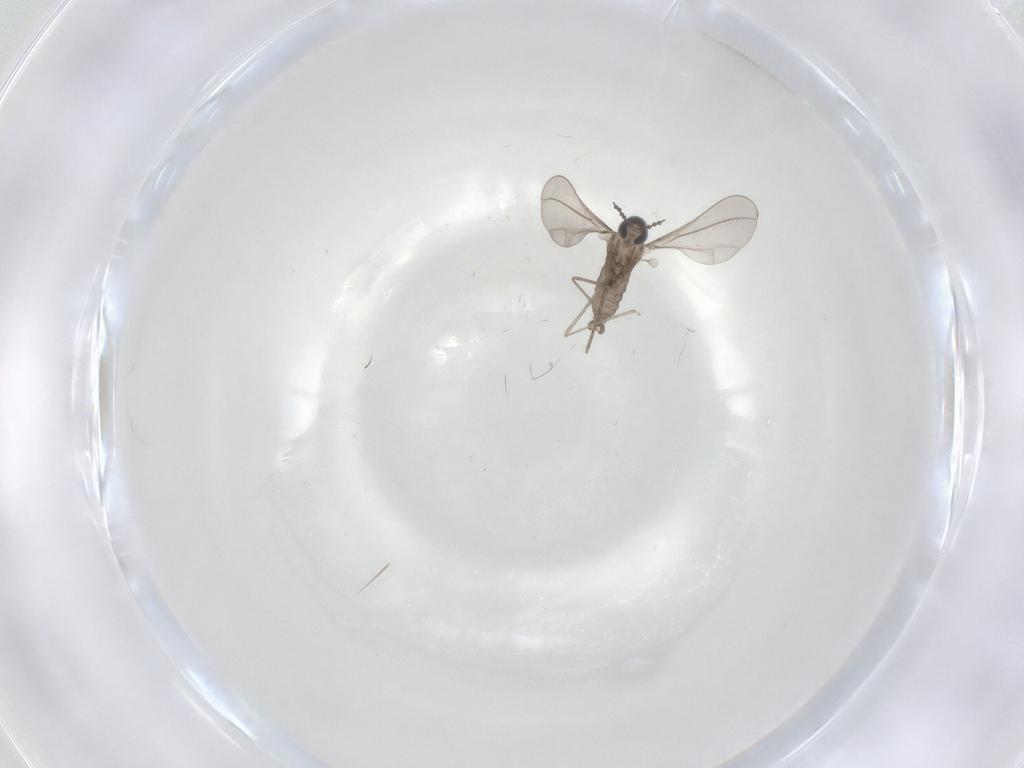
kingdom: Animalia
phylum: Arthropoda
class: Insecta
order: Diptera
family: Cecidomyiidae
